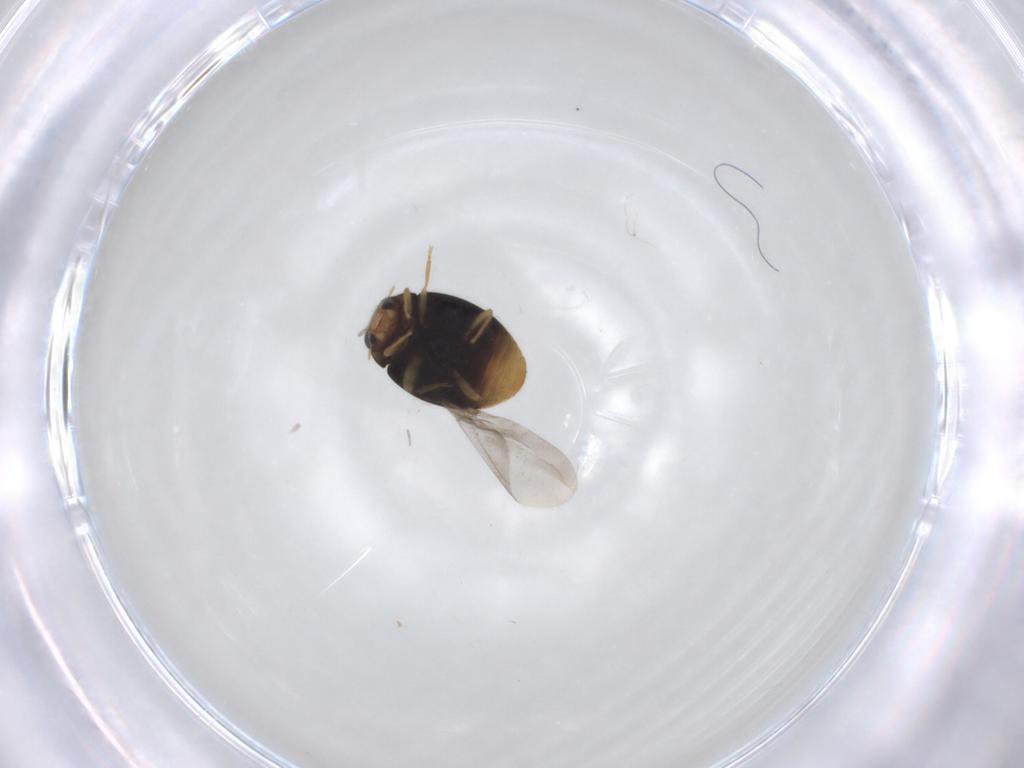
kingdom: Animalia
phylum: Arthropoda
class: Insecta
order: Coleoptera
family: Coccinellidae
